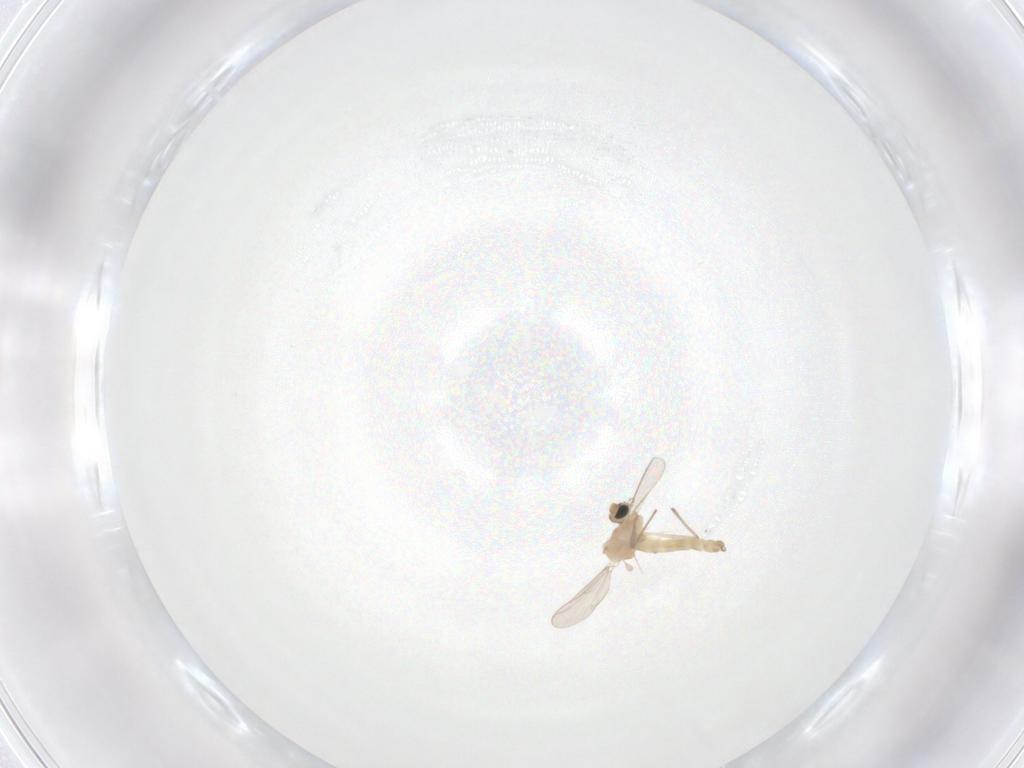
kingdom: Animalia
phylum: Arthropoda
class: Insecta
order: Diptera
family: Chironomidae
